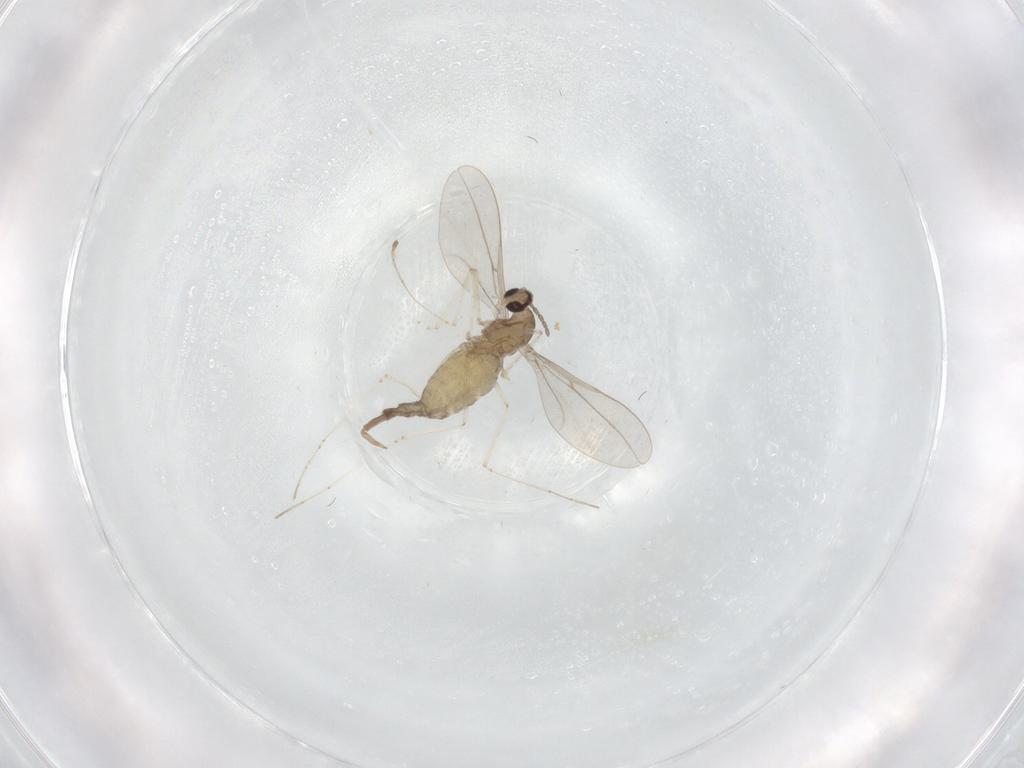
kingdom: Animalia
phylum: Arthropoda
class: Insecta
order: Diptera
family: Cecidomyiidae
